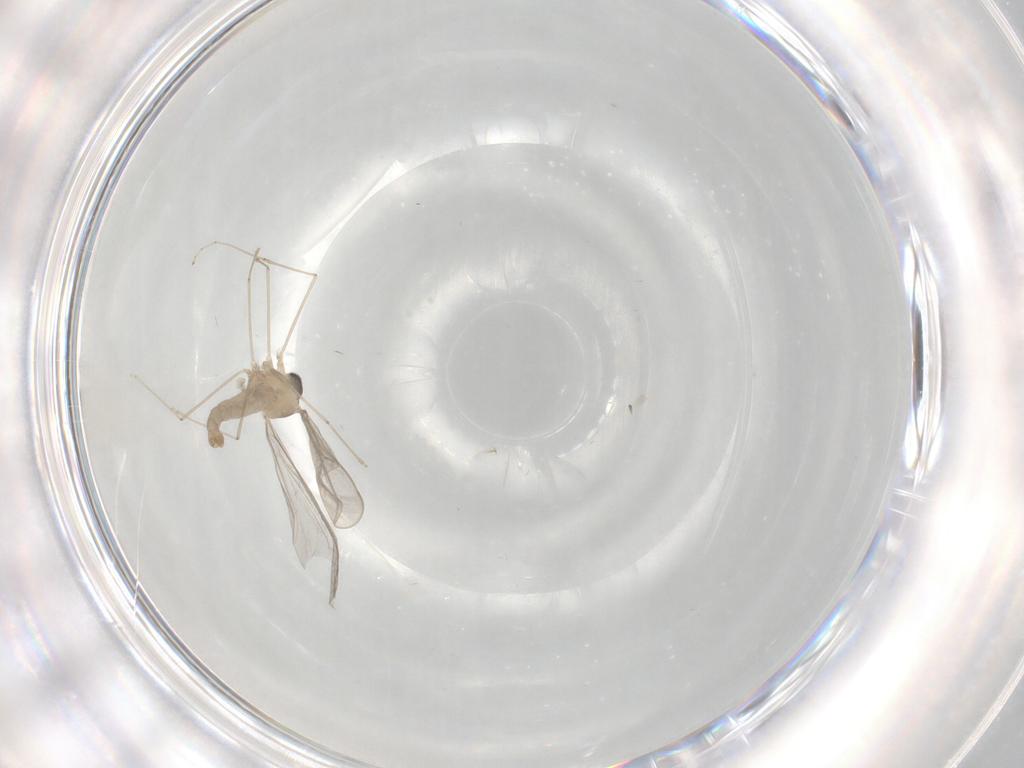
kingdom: Animalia
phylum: Arthropoda
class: Insecta
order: Diptera
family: Cecidomyiidae
